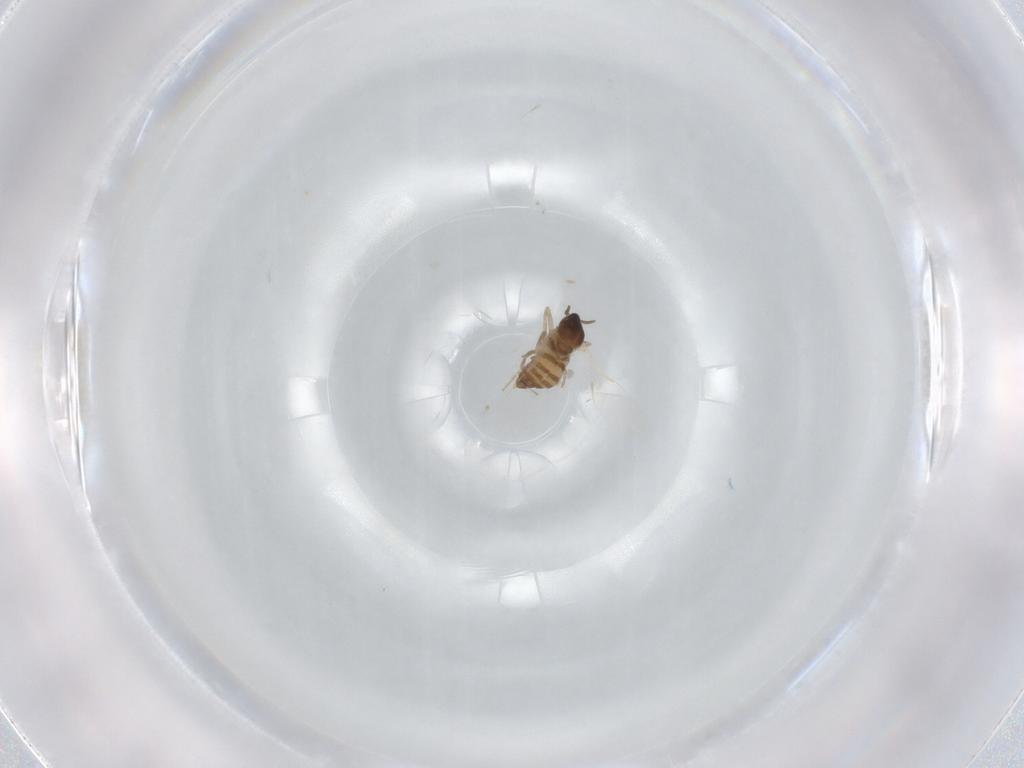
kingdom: Animalia
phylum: Arthropoda
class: Insecta
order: Diptera
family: Cecidomyiidae
